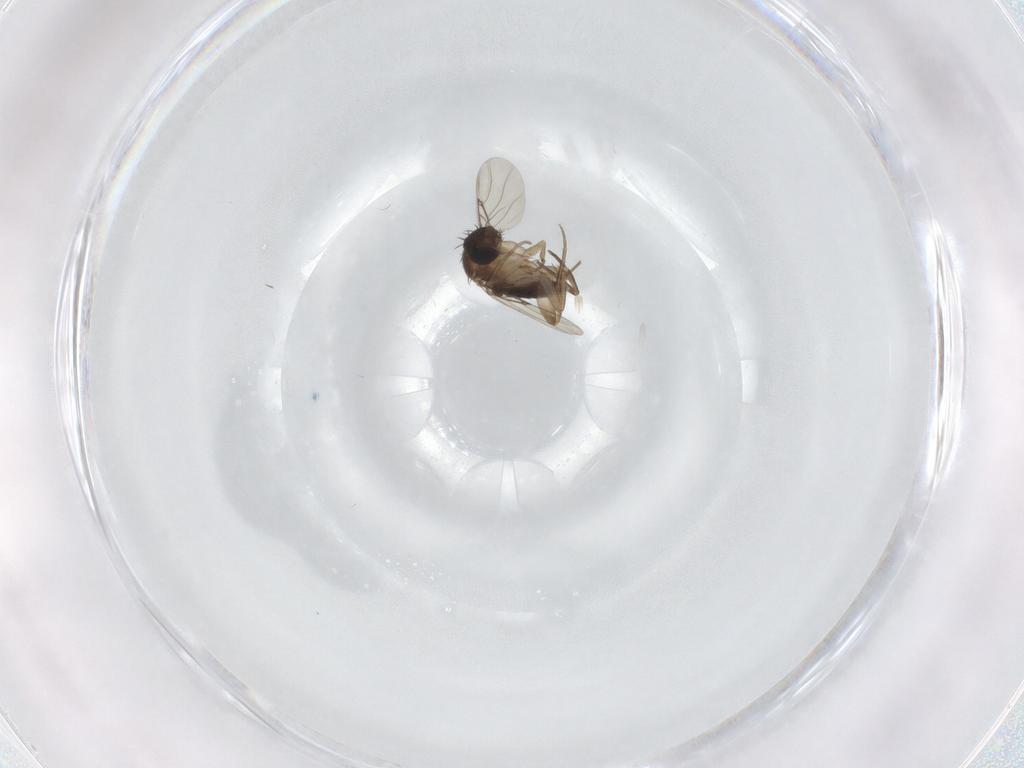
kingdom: Animalia
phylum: Arthropoda
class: Insecta
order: Diptera
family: Phoridae
